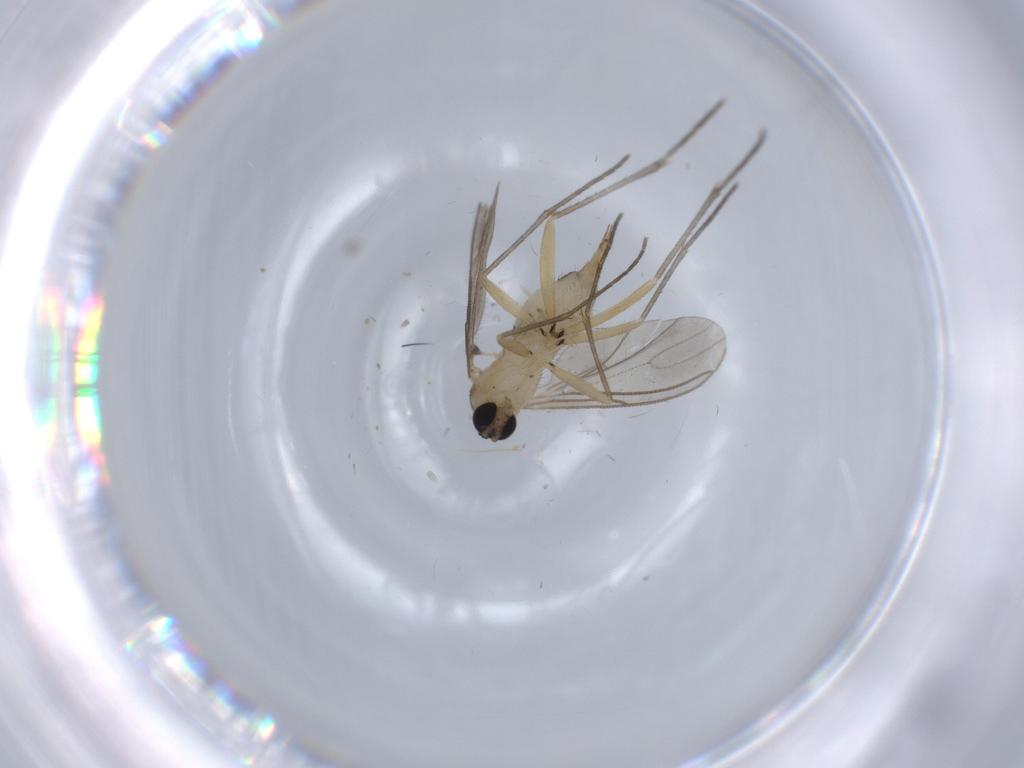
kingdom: Animalia
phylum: Arthropoda
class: Insecta
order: Diptera
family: Sciaridae
